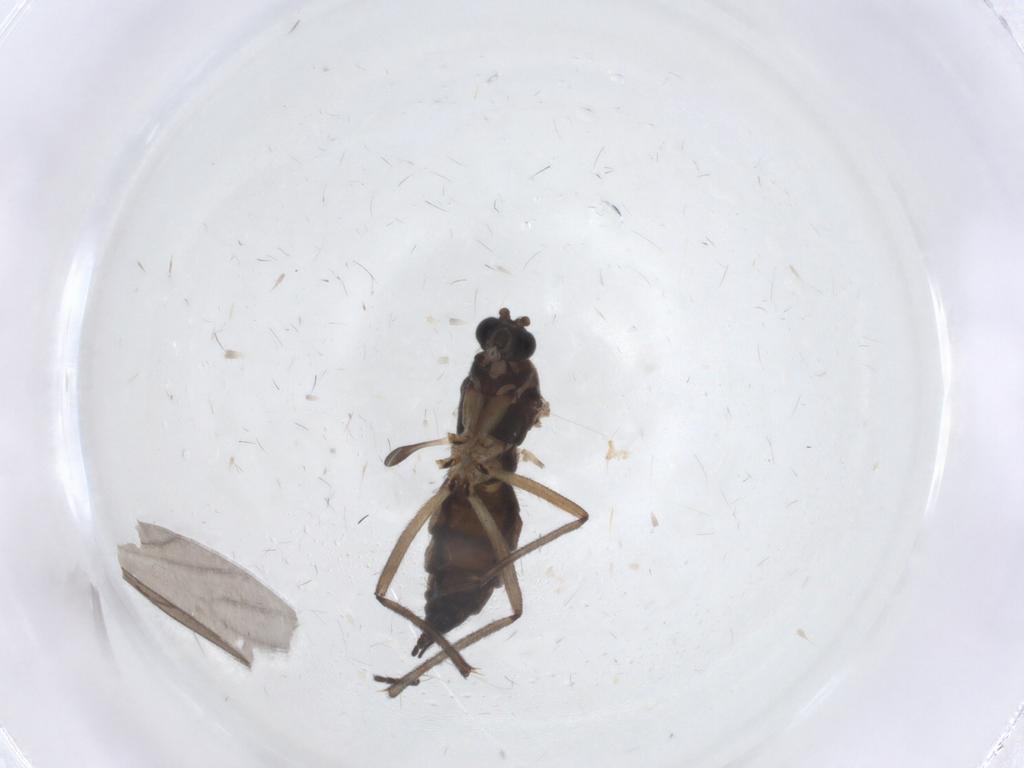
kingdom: Animalia
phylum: Arthropoda
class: Insecta
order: Diptera
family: Sciaridae
